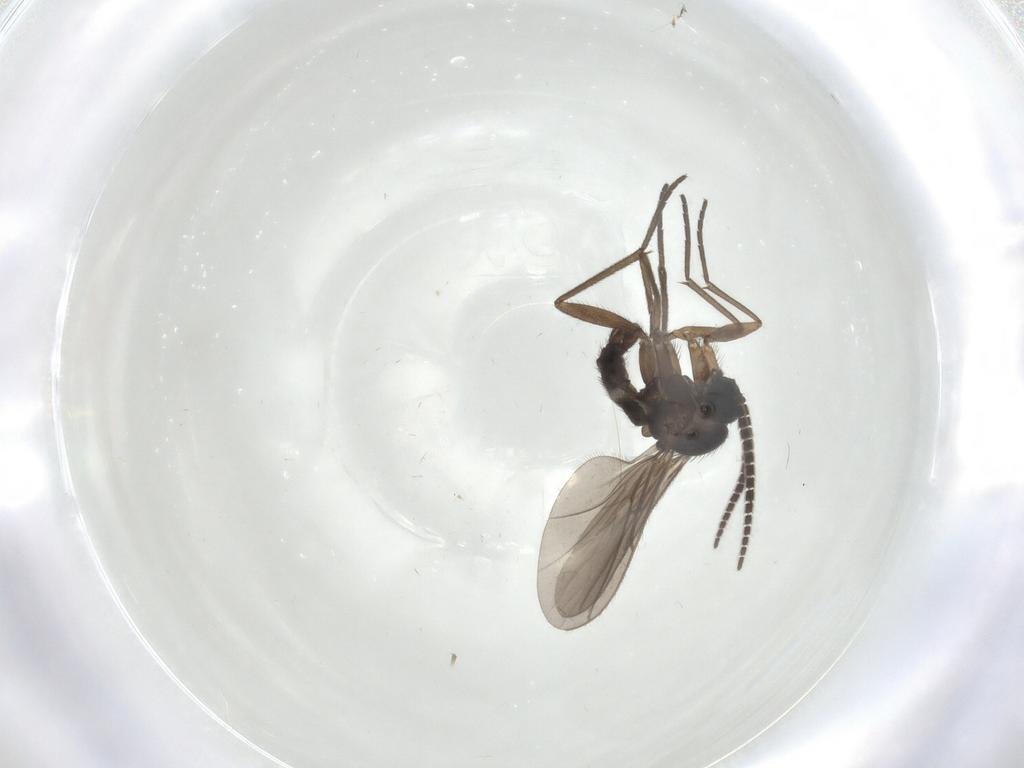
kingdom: Animalia
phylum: Arthropoda
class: Insecta
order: Diptera
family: Sciaridae
